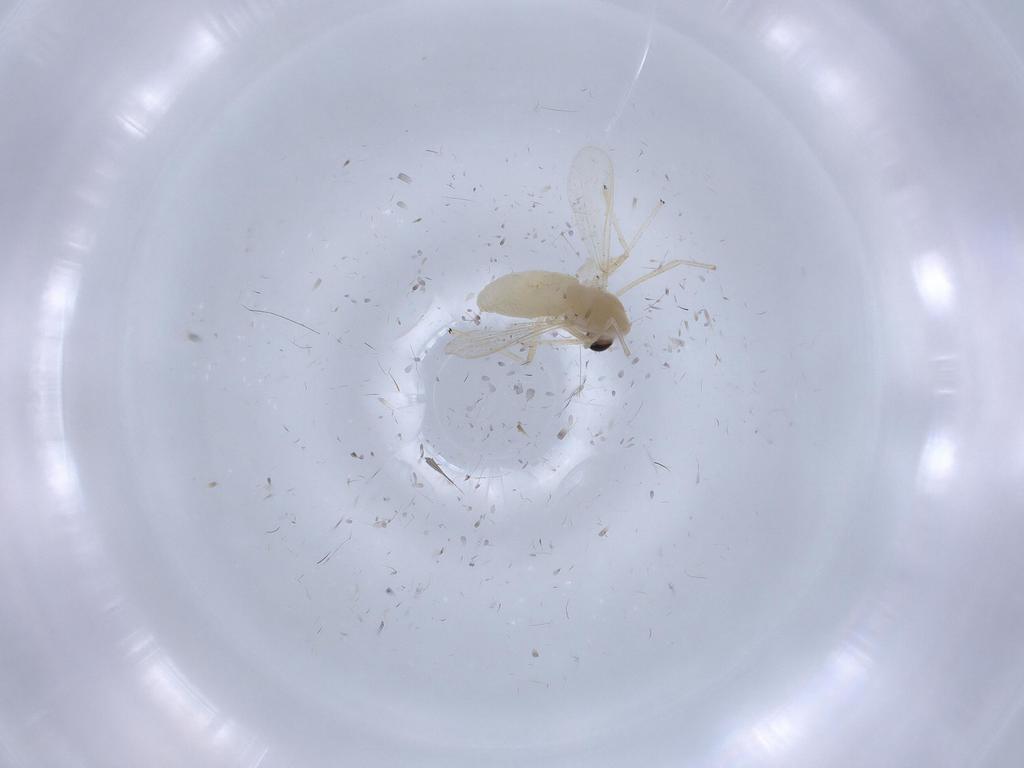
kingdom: Animalia
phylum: Arthropoda
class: Insecta
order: Diptera
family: Chironomidae
